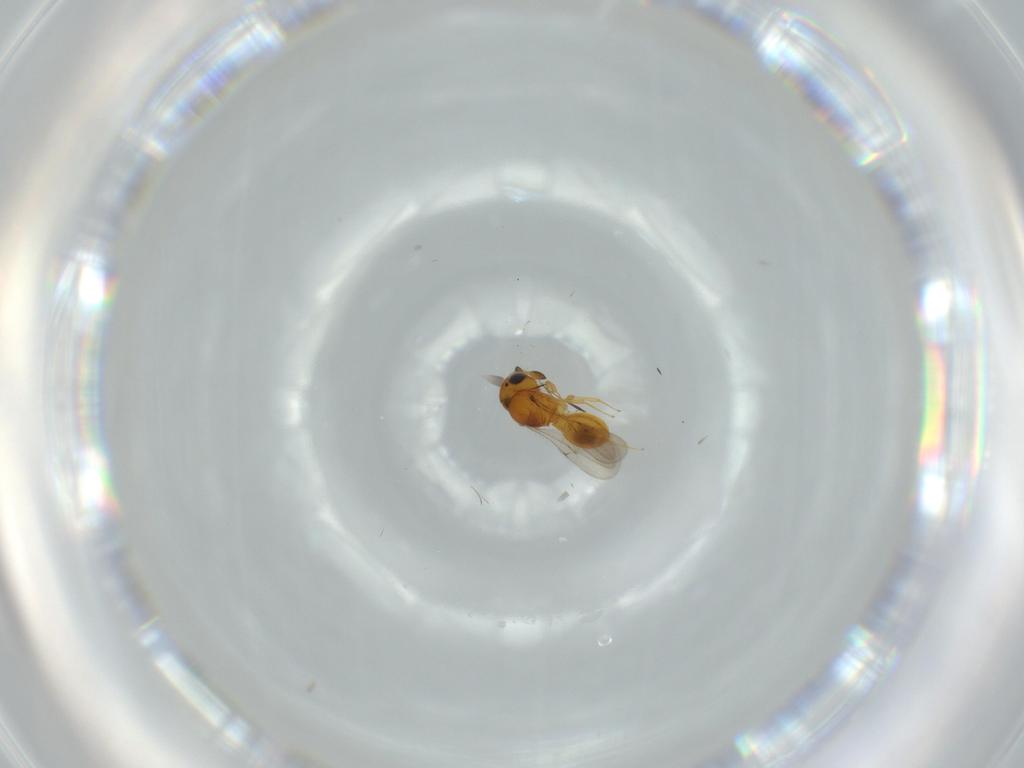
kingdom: Animalia
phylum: Arthropoda
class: Insecta
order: Hymenoptera
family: Scelionidae
